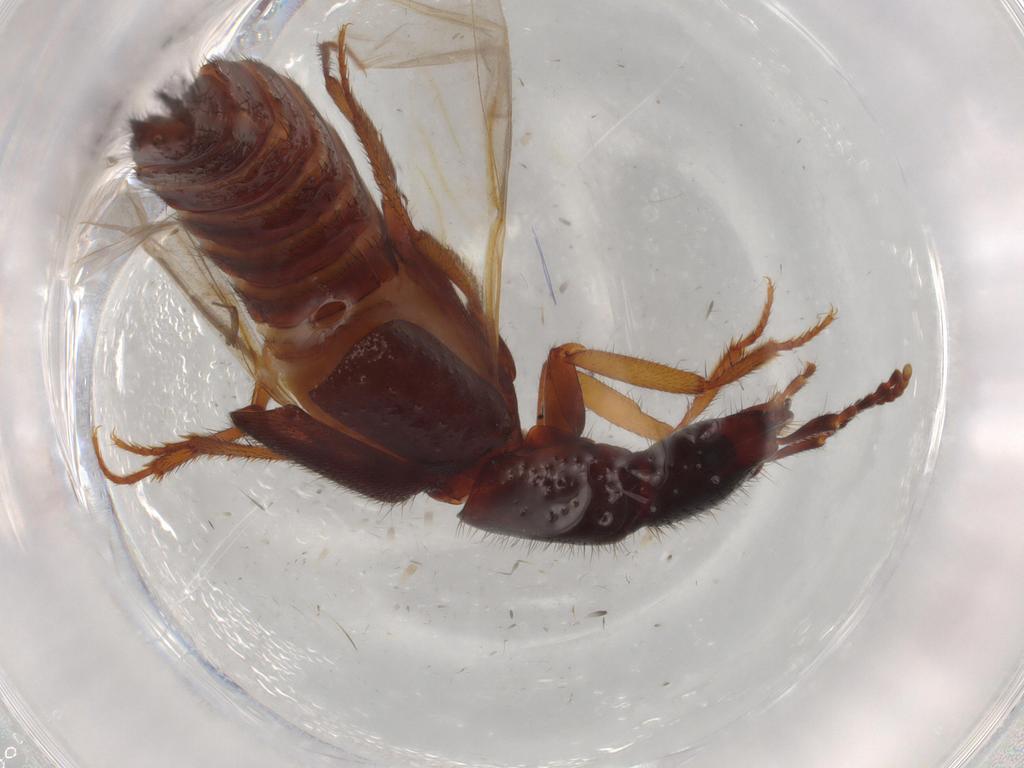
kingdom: Animalia
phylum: Arthropoda
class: Insecta
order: Coleoptera
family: Staphylinidae
